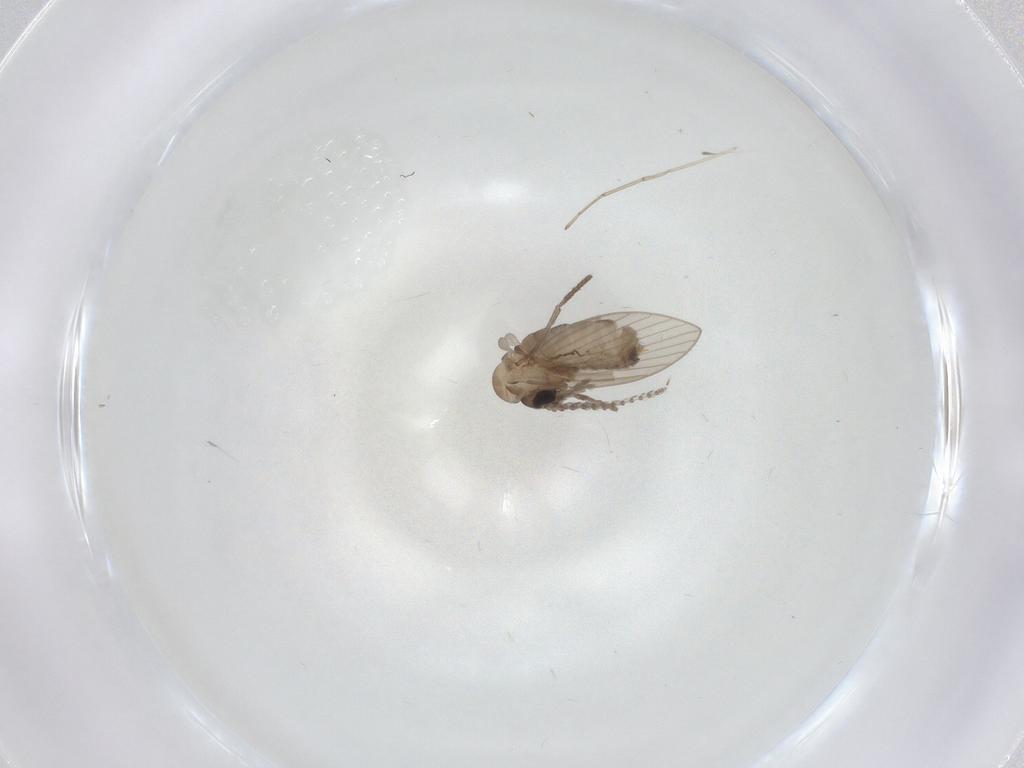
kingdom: Animalia
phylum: Arthropoda
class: Insecta
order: Diptera
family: Psychodidae
